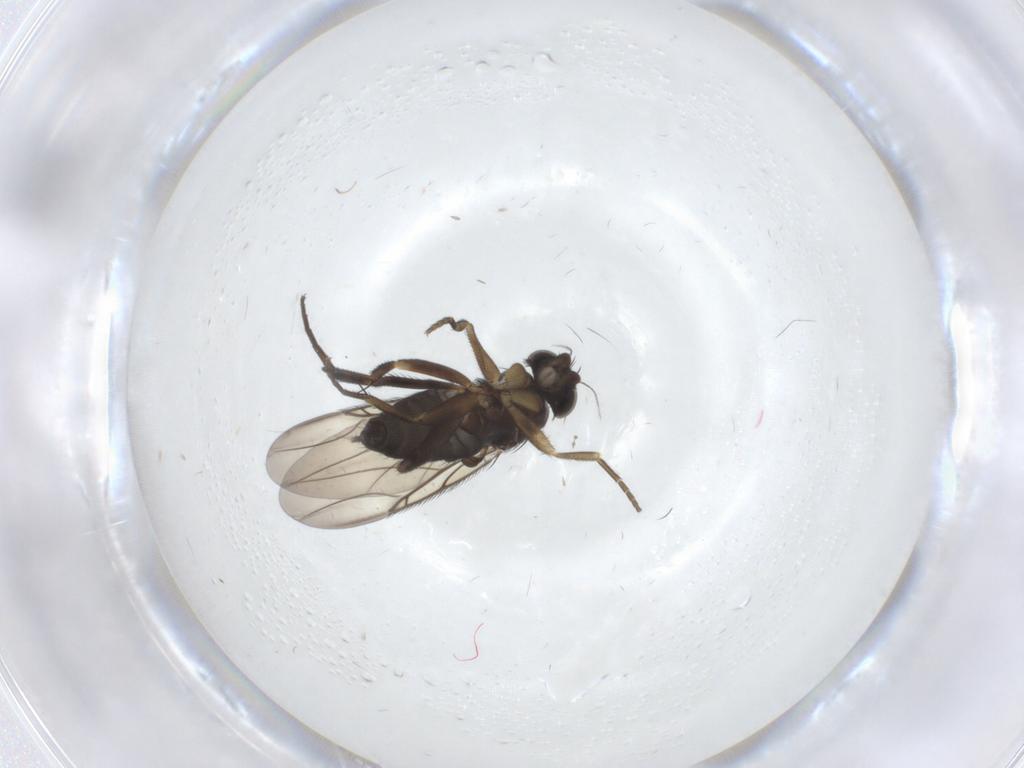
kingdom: Animalia
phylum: Arthropoda
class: Insecta
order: Diptera
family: Phoridae
